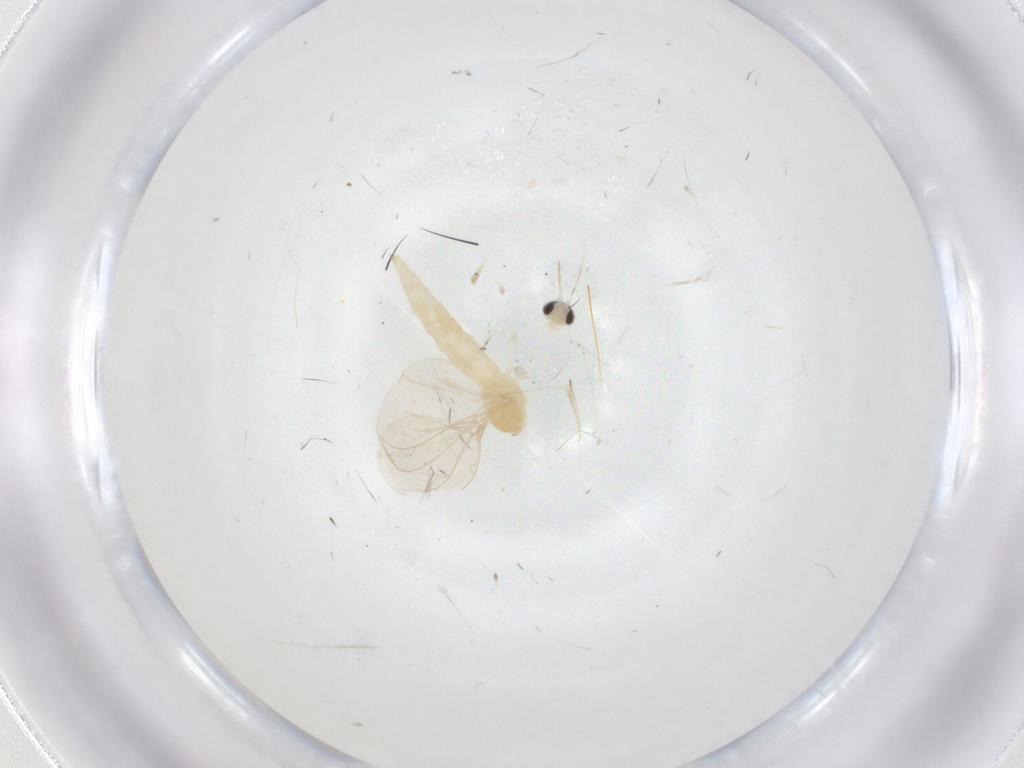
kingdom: Animalia
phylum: Arthropoda
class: Insecta
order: Diptera
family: Cecidomyiidae
